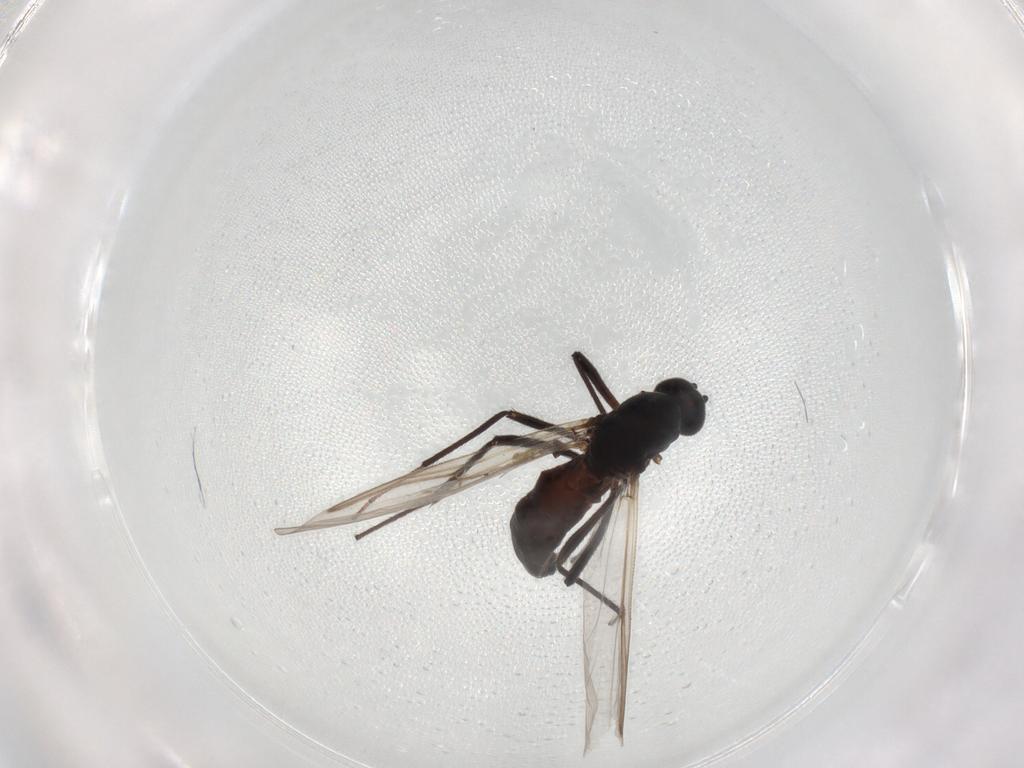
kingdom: Animalia
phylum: Arthropoda
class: Insecta
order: Diptera
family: Ceratopogonidae
